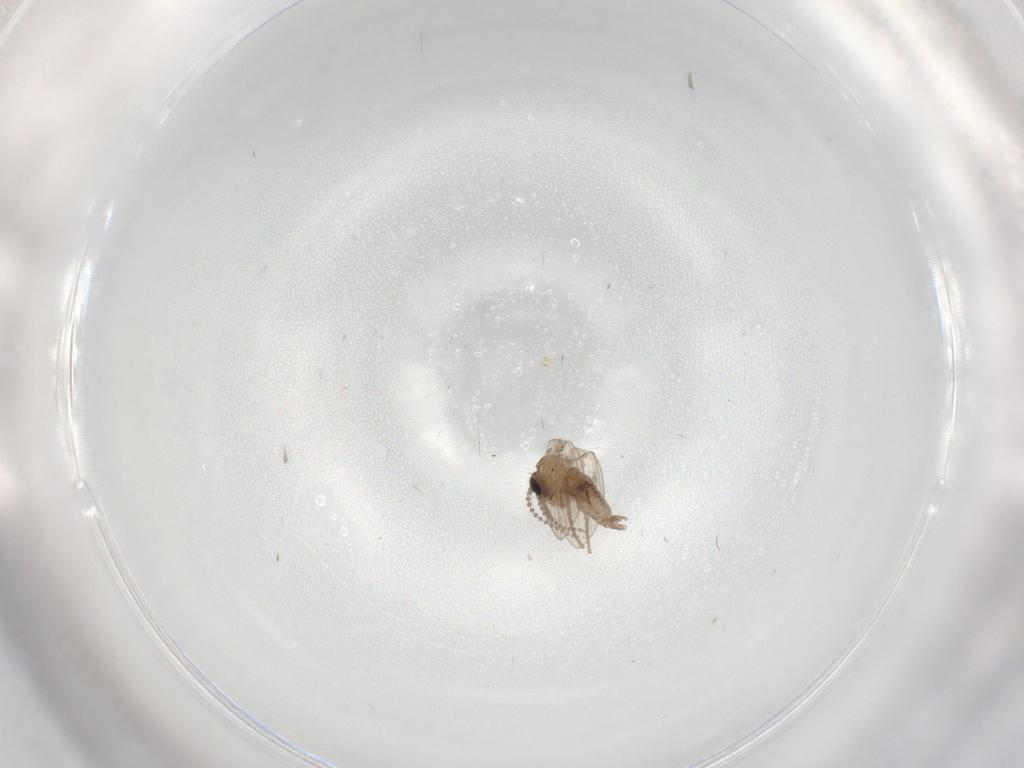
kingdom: Animalia
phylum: Arthropoda
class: Insecta
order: Diptera
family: Psychodidae
